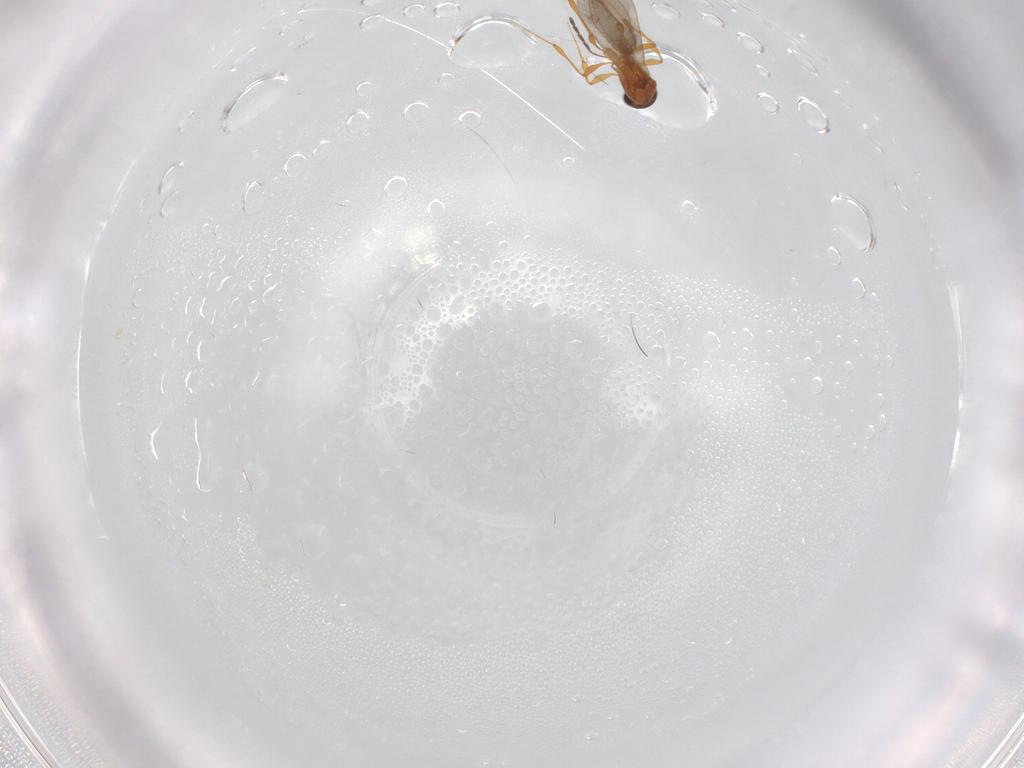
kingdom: Animalia
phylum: Arthropoda
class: Insecta
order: Hymenoptera
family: Platygastridae
